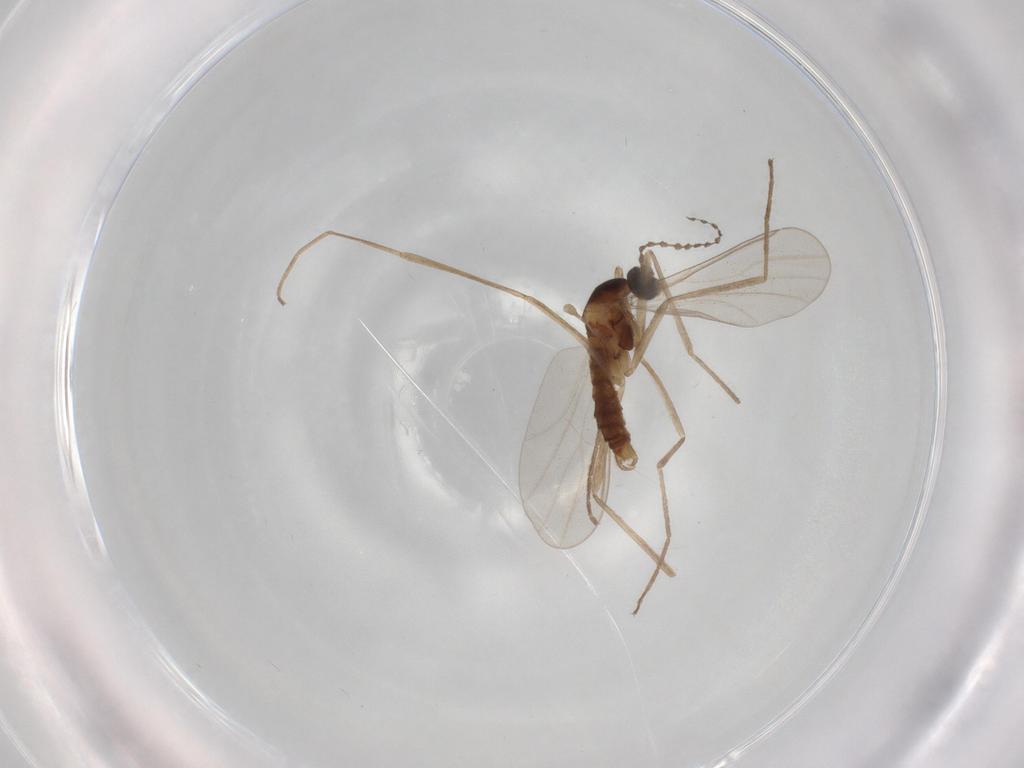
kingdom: Animalia
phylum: Arthropoda
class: Insecta
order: Diptera
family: Cecidomyiidae
